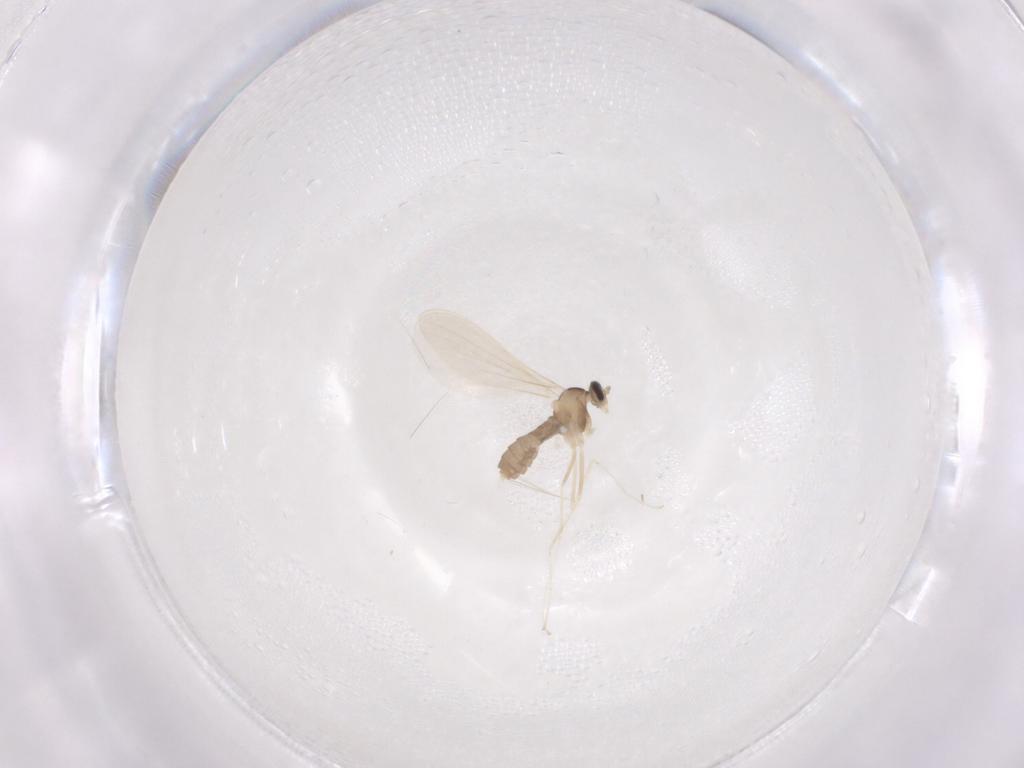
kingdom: Animalia
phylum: Arthropoda
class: Insecta
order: Diptera
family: Cecidomyiidae
